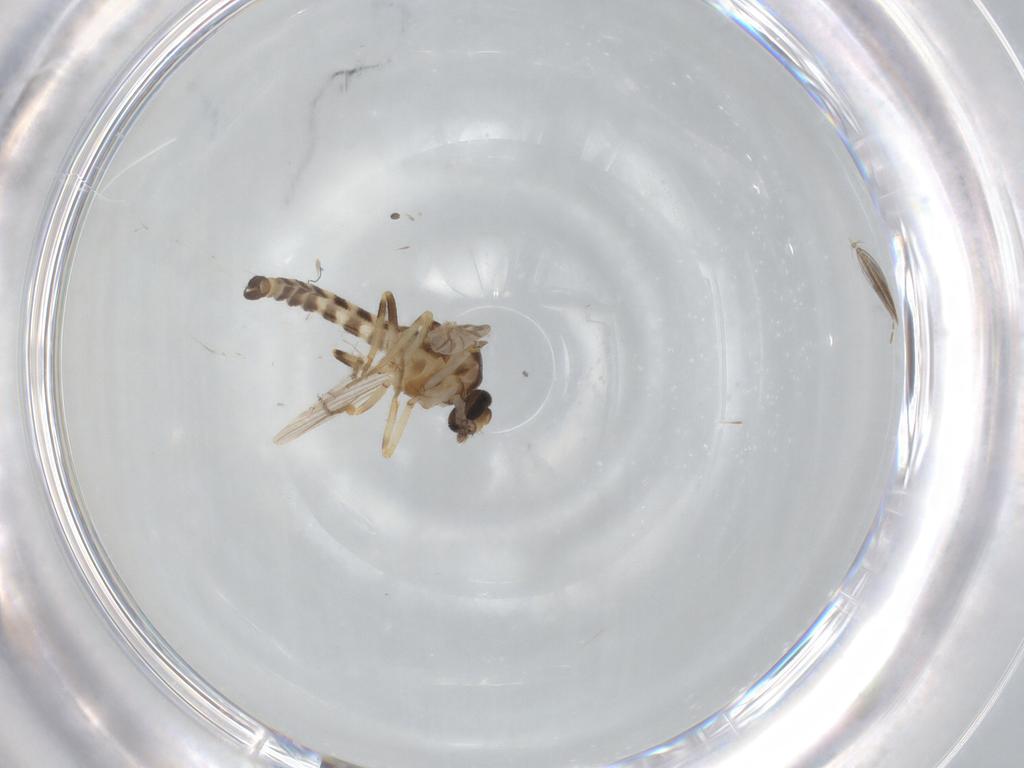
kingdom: Animalia
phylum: Arthropoda
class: Insecta
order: Diptera
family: Ceratopogonidae
